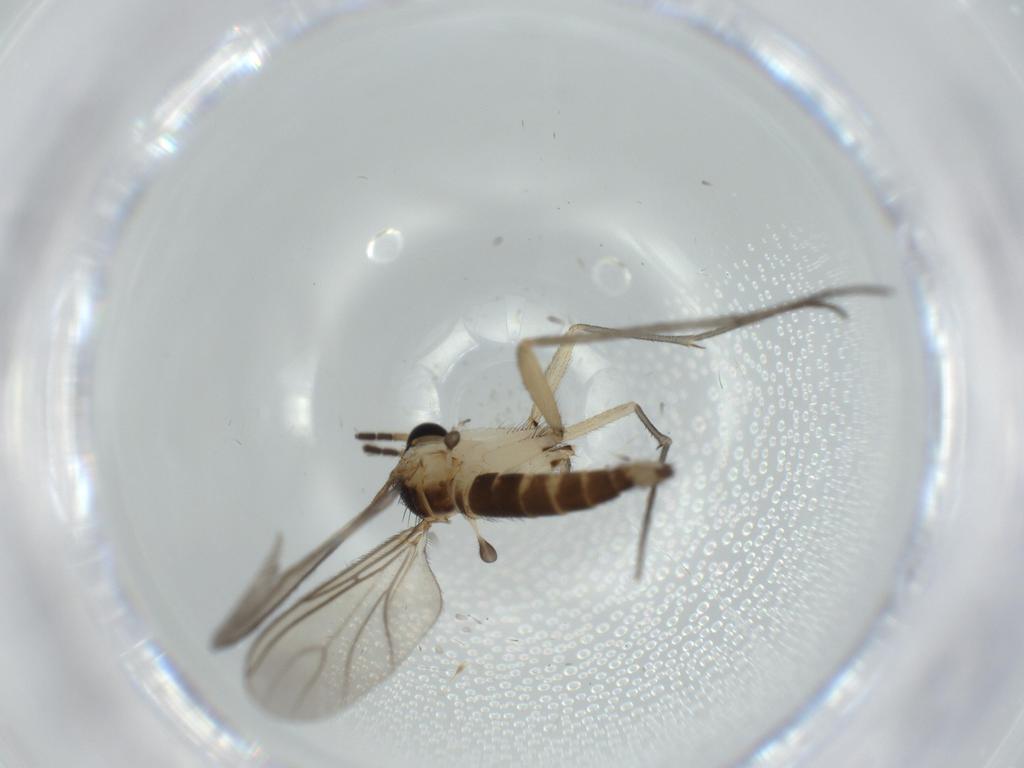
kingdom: Animalia
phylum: Arthropoda
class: Insecta
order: Diptera
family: Sciaridae
